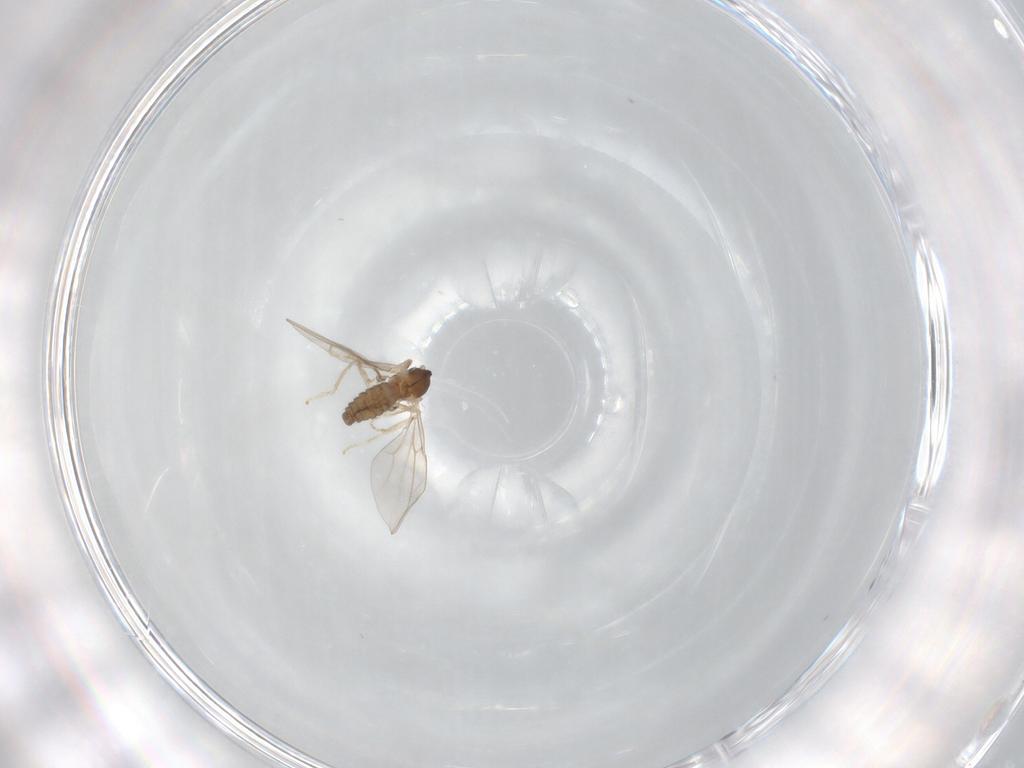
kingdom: Animalia
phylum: Arthropoda
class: Insecta
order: Diptera
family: Cecidomyiidae
